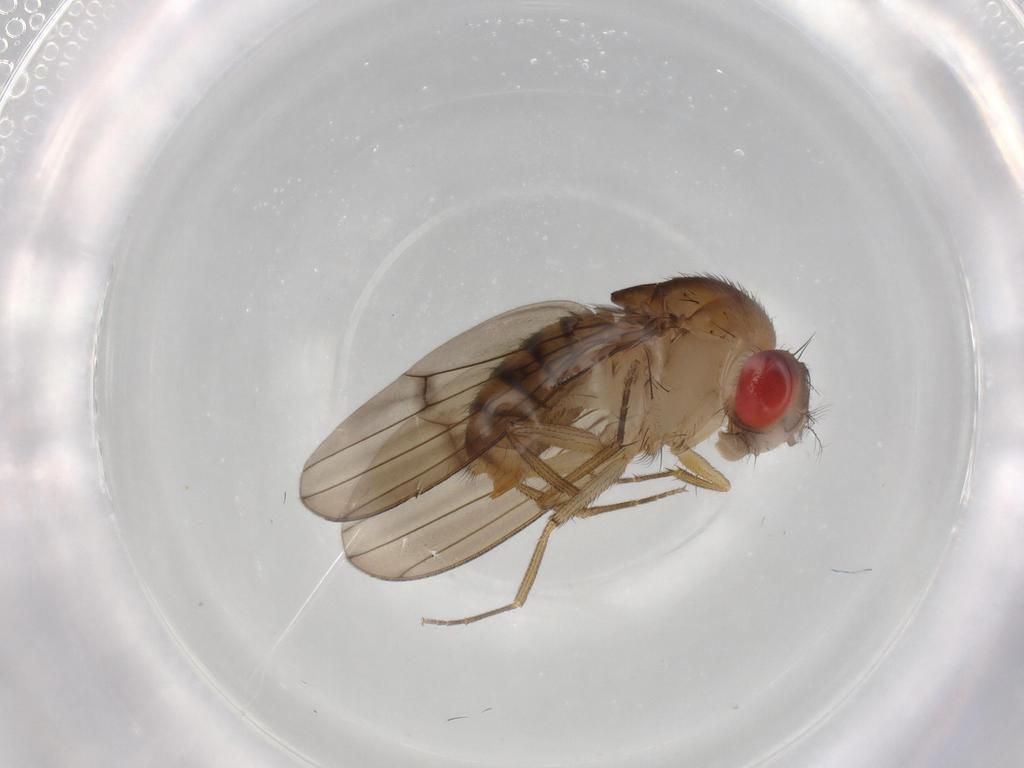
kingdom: Animalia
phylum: Arthropoda
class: Insecta
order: Diptera
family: Drosophilidae
